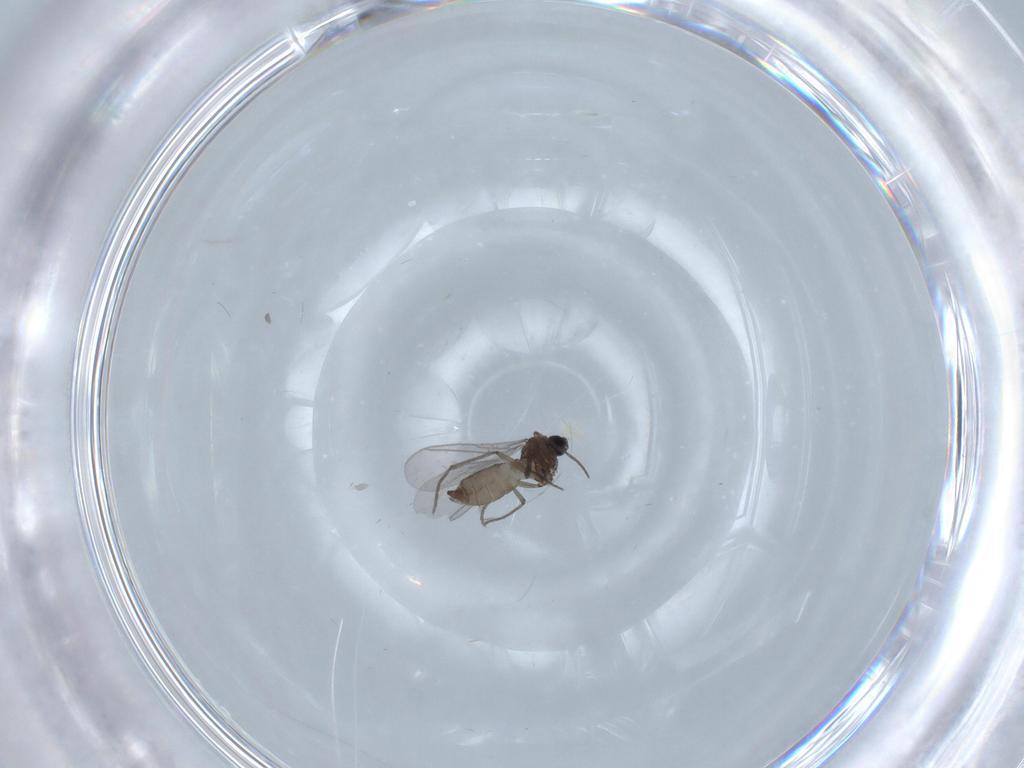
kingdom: Animalia
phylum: Arthropoda
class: Insecta
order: Diptera
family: Sciaridae
